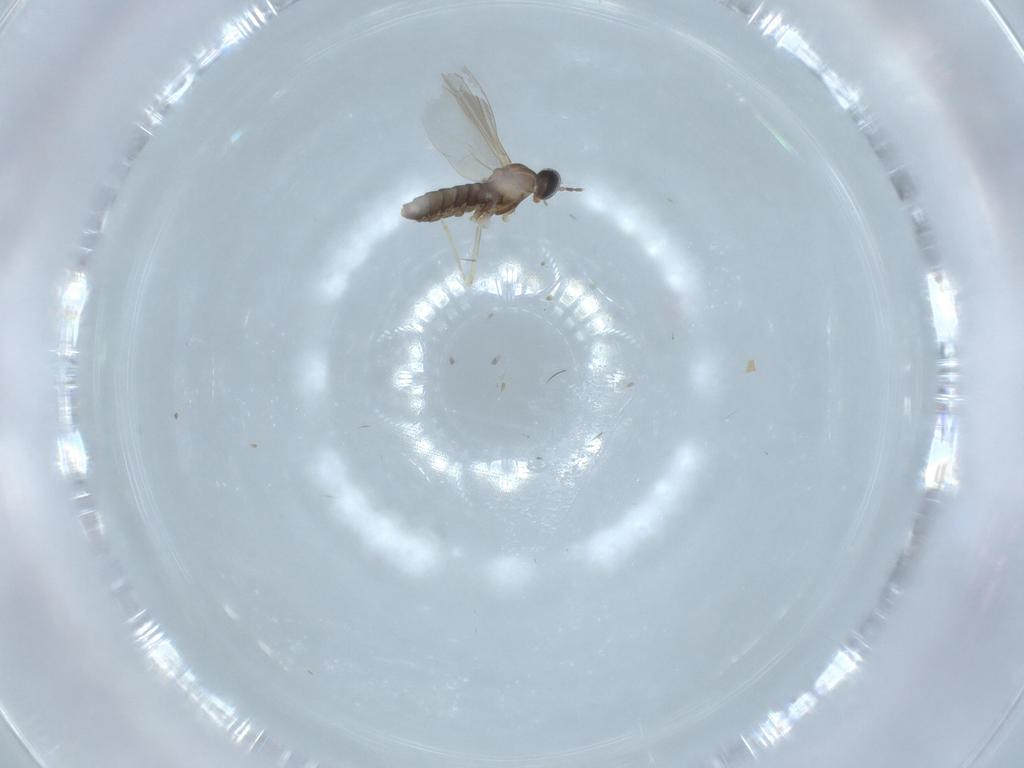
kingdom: Animalia
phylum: Arthropoda
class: Insecta
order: Diptera
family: Cecidomyiidae
